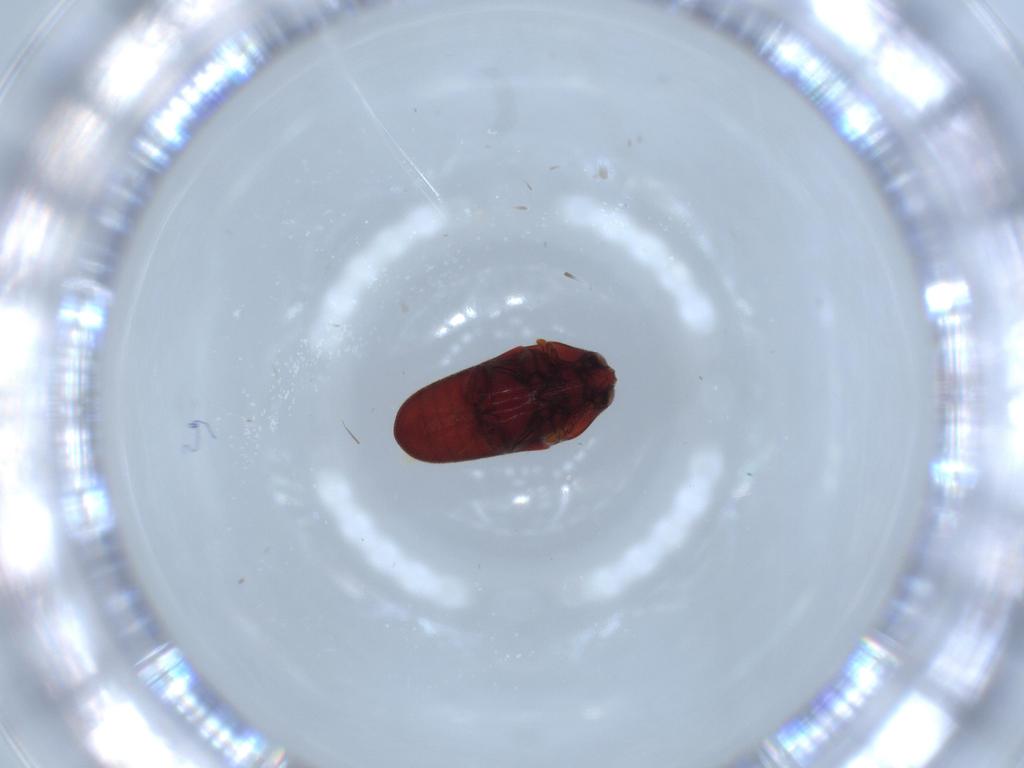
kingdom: Animalia
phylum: Arthropoda
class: Insecta
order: Coleoptera
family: Throscidae
